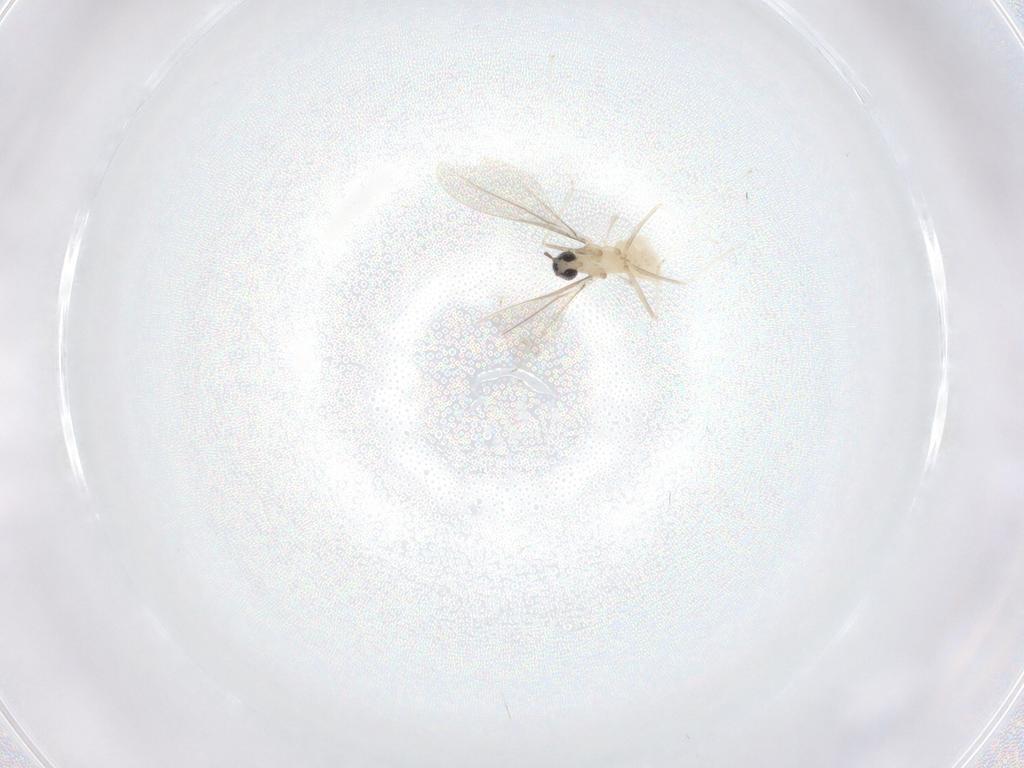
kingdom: Animalia
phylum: Arthropoda
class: Insecta
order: Diptera
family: Cecidomyiidae
